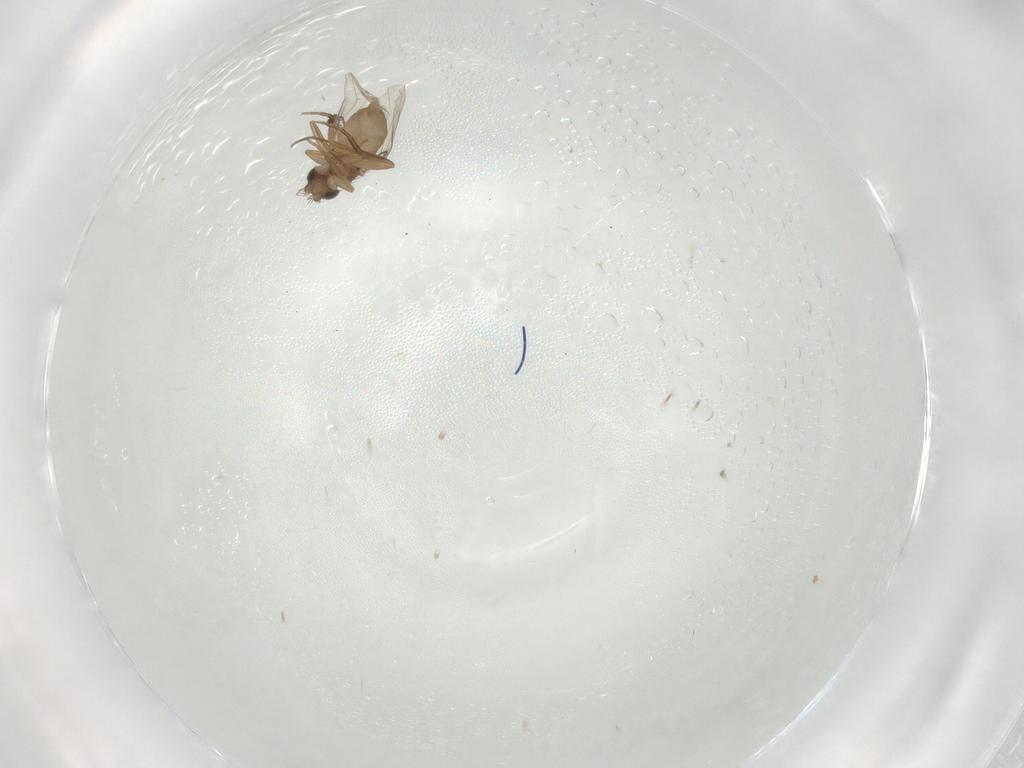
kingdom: Animalia
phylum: Arthropoda
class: Insecta
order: Diptera
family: Phoridae
